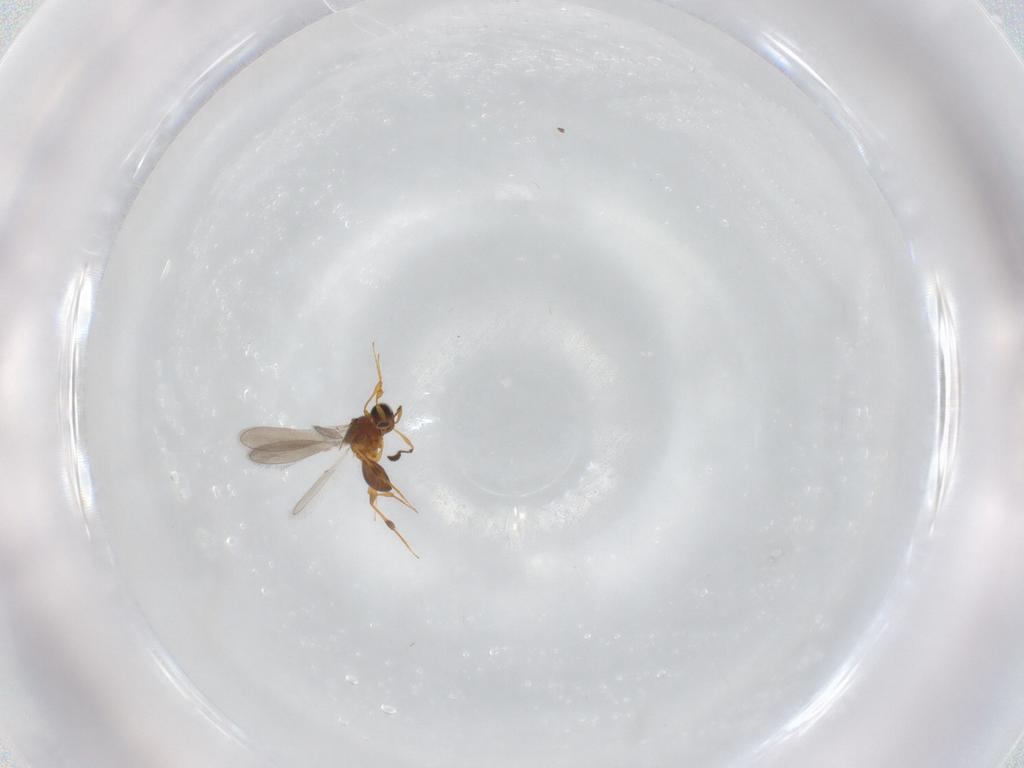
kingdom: Animalia
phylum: Arthropoda
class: Insecta
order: Hymenoptera
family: Platygastridae
